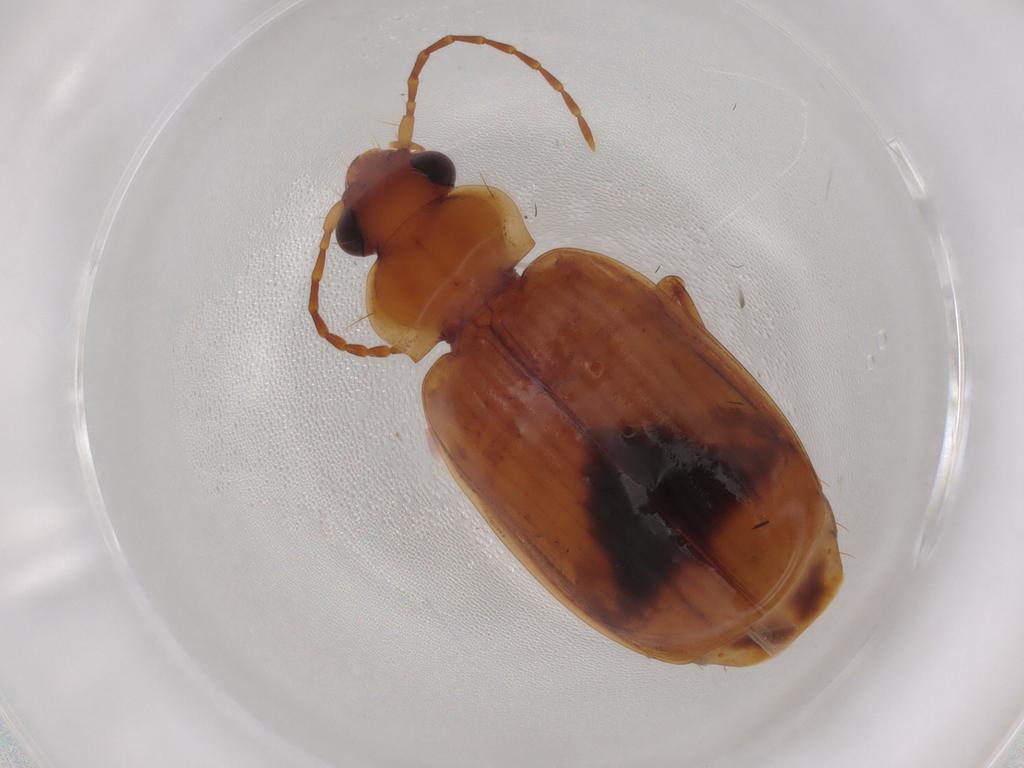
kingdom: Animalia
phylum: Arthropoda
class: Insecta
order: Coleoptera
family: Carabidae
